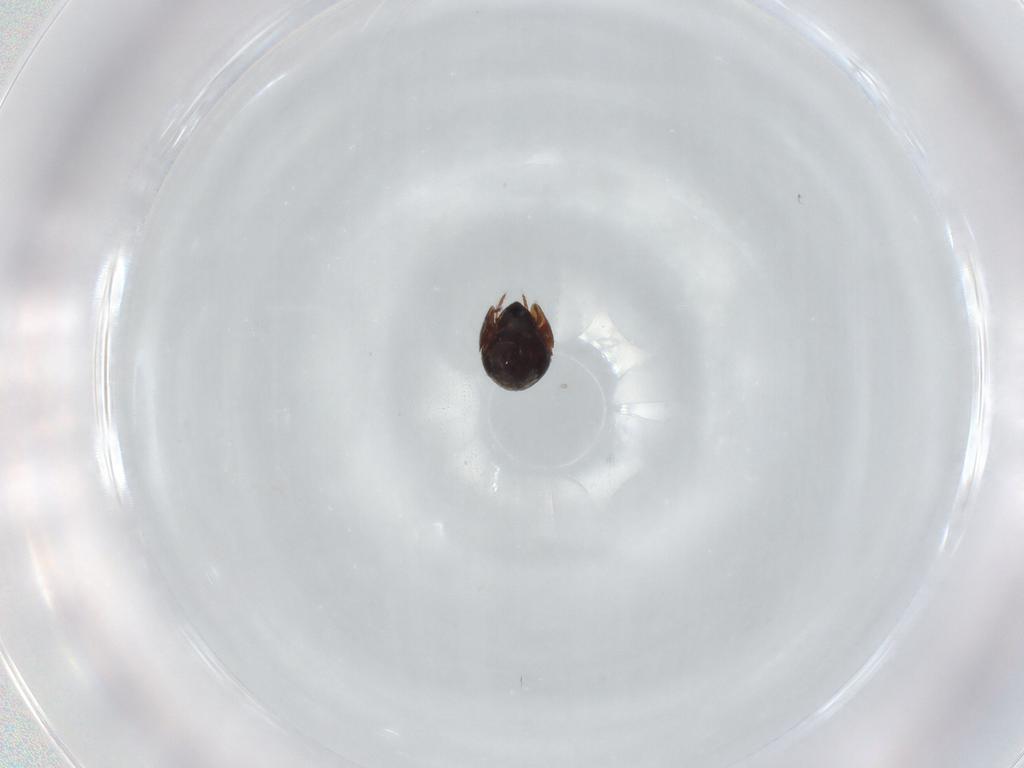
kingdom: Animalia
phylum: Arthropoda
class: Arachnida
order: Sarcoptiformes
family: Ceratozetidae
